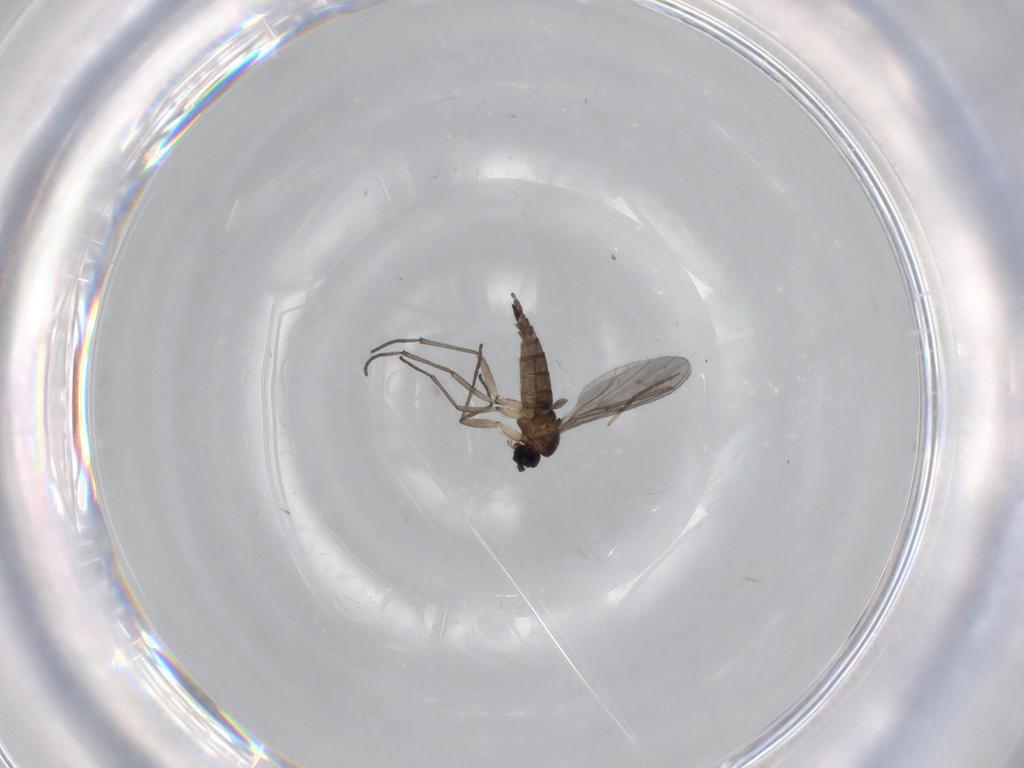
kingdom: Animalia
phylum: Arthropoda
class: Insecta
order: Diptera
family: Sciaridae
